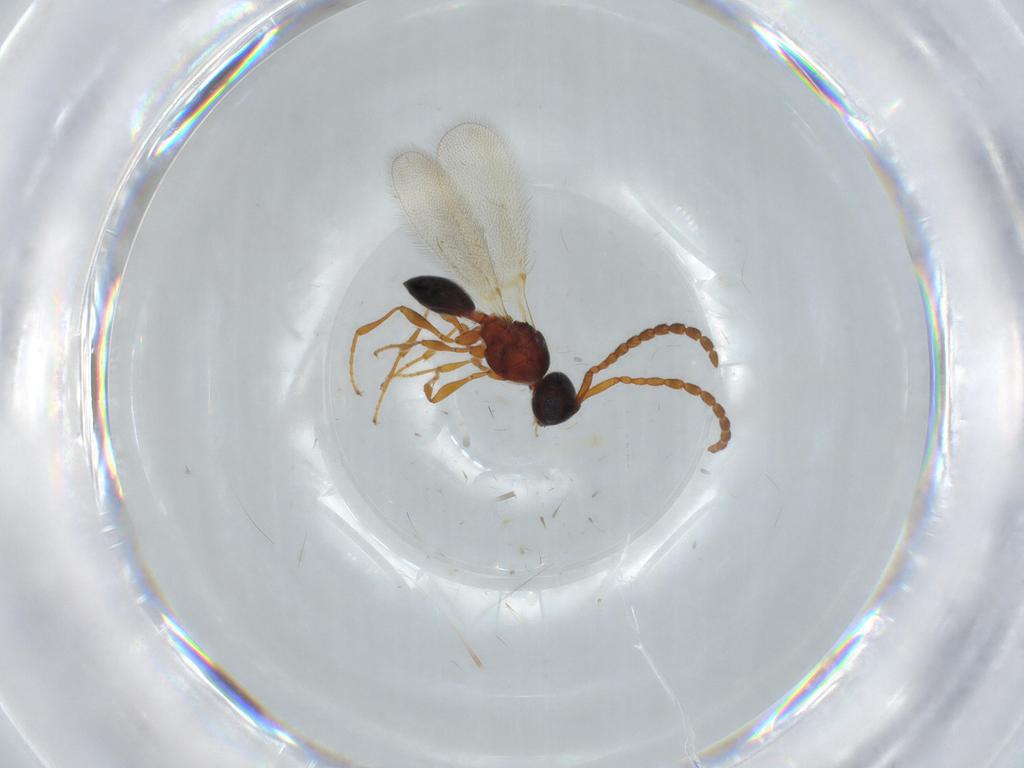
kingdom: Animalia
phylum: Arthropoda
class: Insecta
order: Hymenoptera
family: Diapriidae
